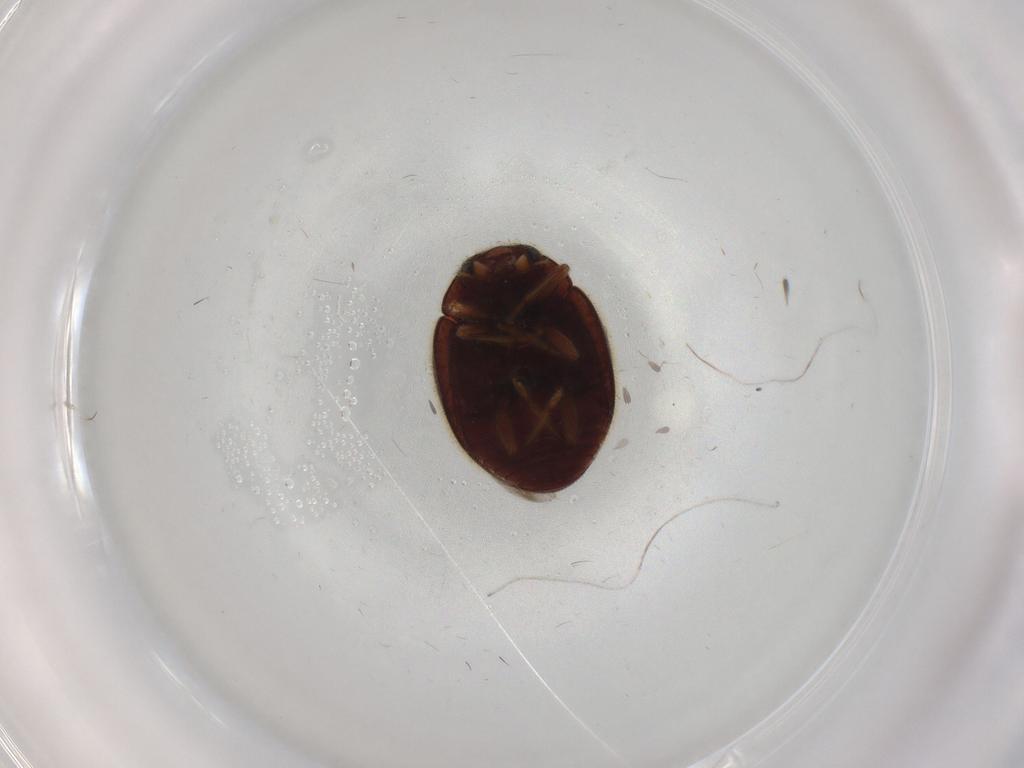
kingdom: Animalia
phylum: Arthropoda
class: Insecta
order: Coleoptera
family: Coccinellidae
